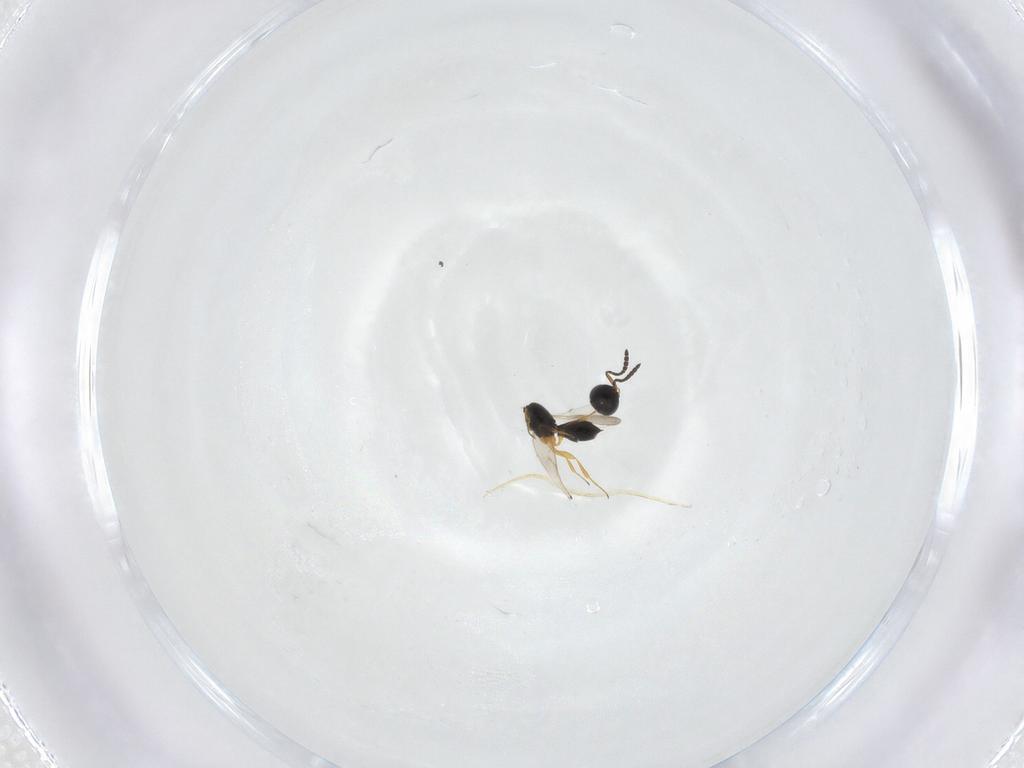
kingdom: Animalia
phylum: Arthropoda
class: Insecta
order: Hymenoptera
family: Scelionidae
